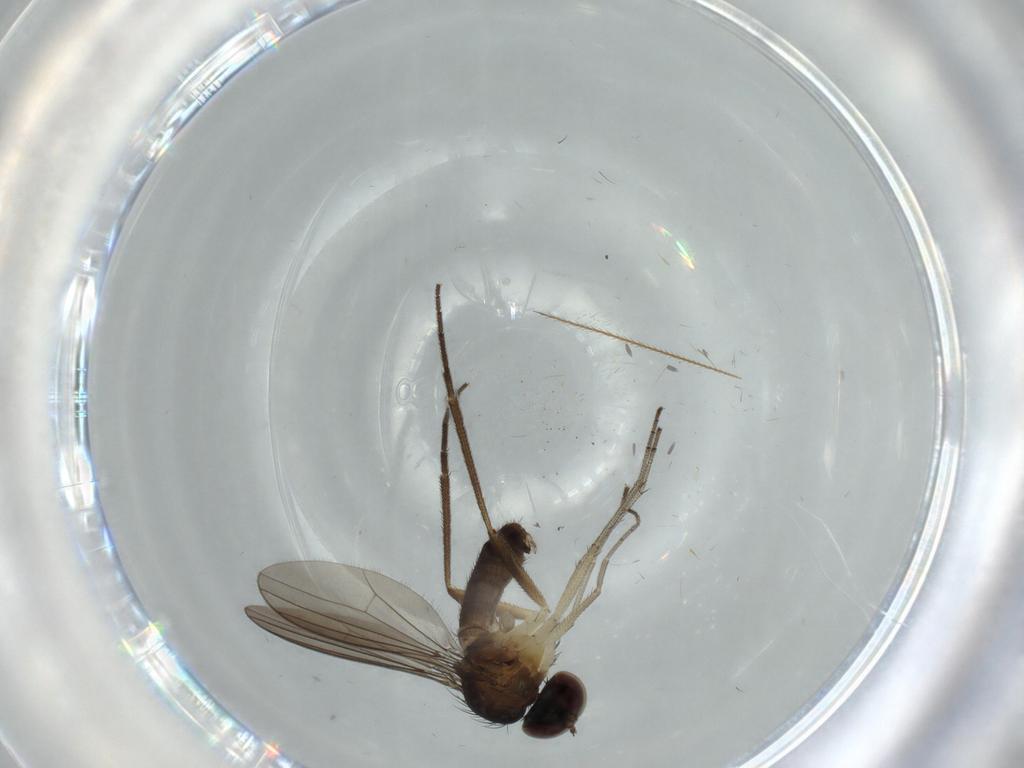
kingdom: Animalia
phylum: Arthropoda
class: Insecta
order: Diptera
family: Dolichopodidae
